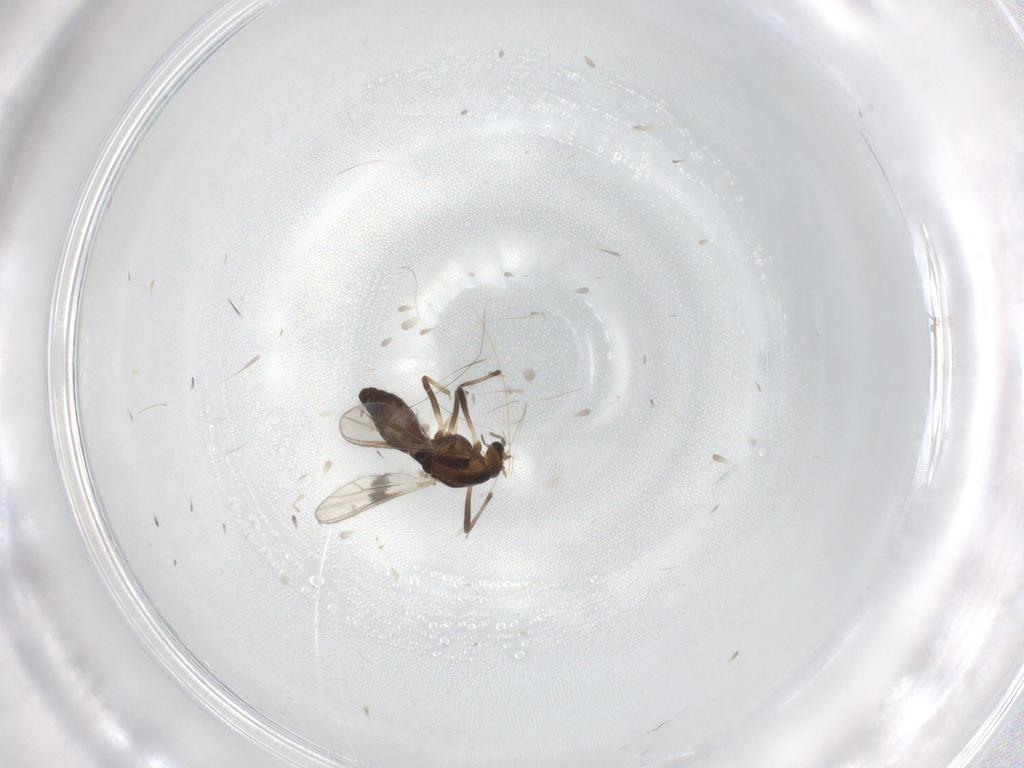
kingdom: Animalia
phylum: Arthropoda
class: Insecta
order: Diptera
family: Chironomidae
